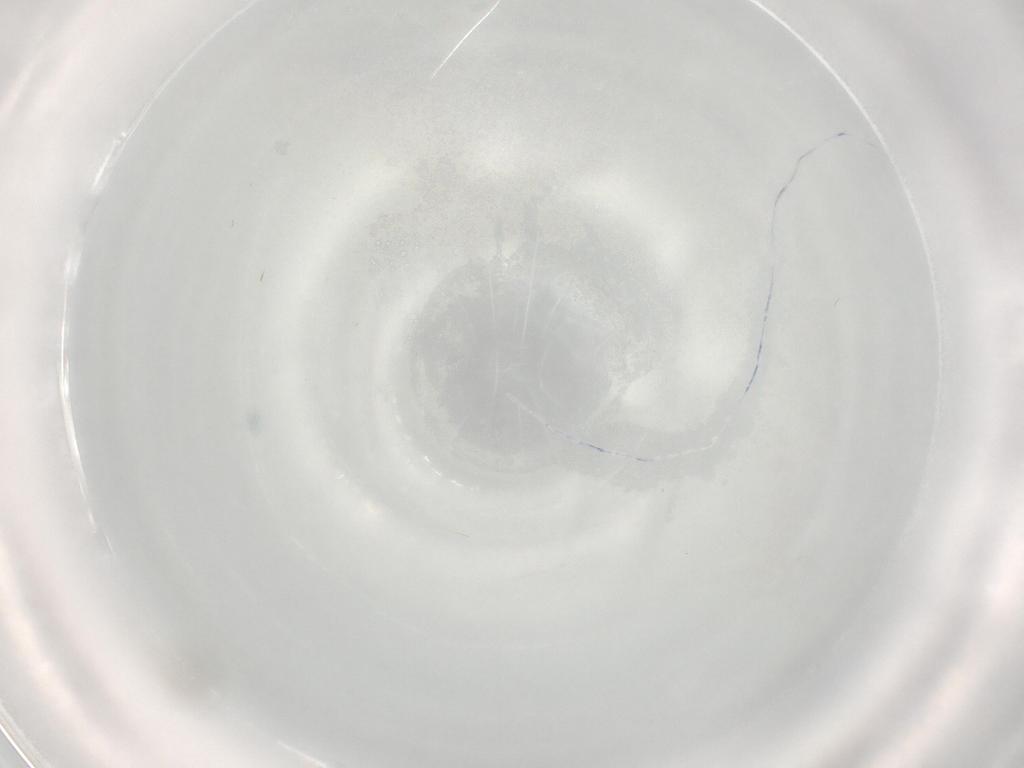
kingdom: Animalia
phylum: Arthropoda
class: Insecta
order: Diptera
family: Cecidomyiidae
